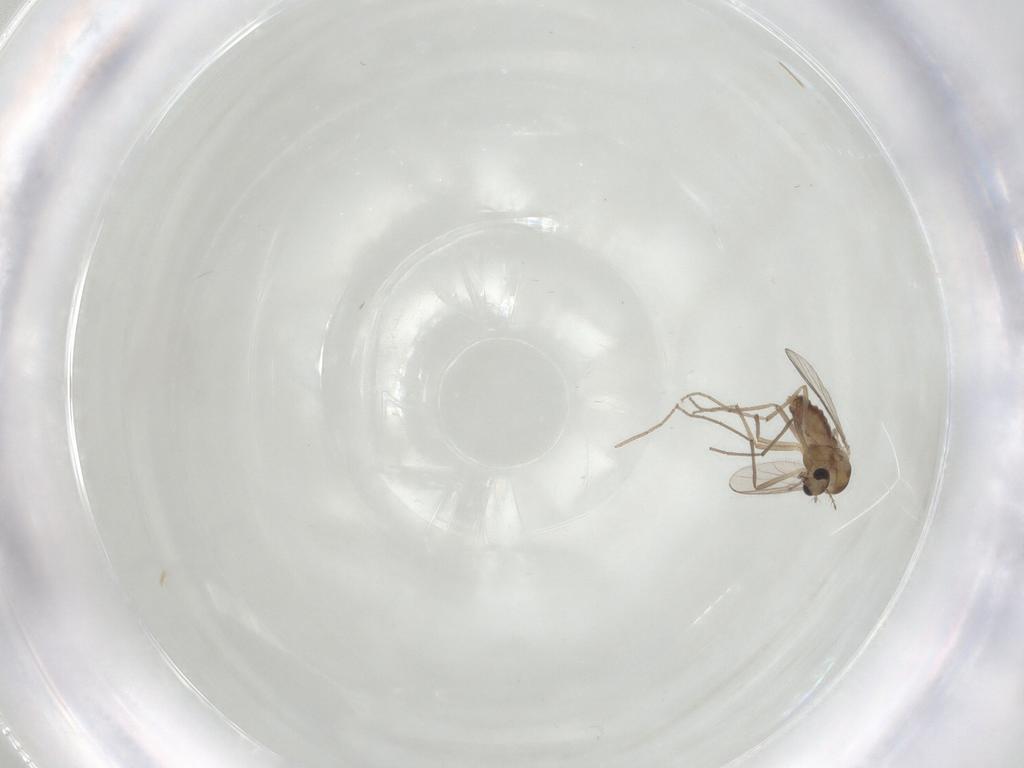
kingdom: Animalia
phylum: Arthropoda
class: Insecta
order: Diptera
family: Chironomidae
